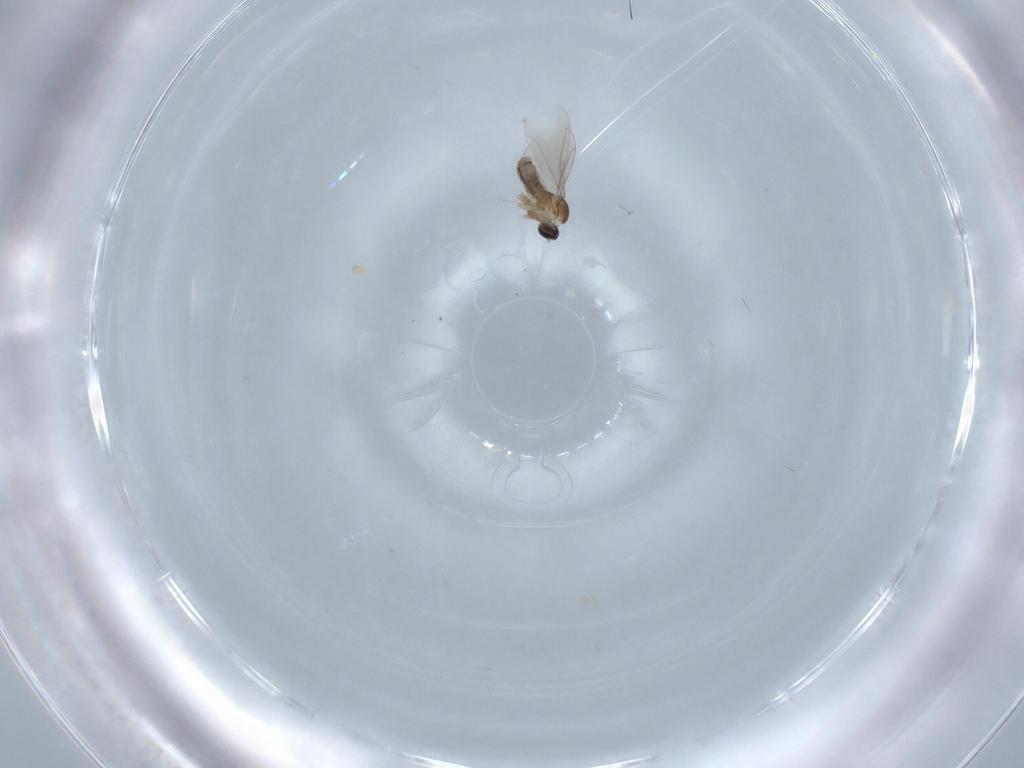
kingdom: Animalia
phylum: Arthropoda
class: Insecta
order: Diptera
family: Cecidomyiidae
